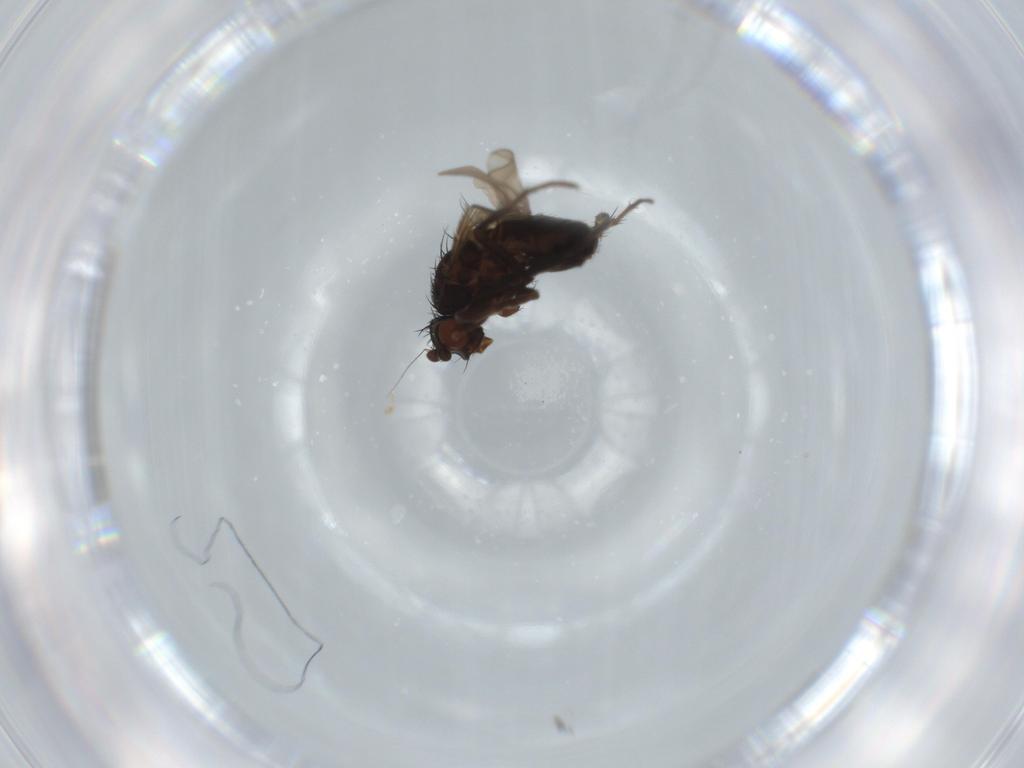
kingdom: Animalia
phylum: Arthropoda
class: Insecta
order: Diptera
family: Sphaeroceridae
